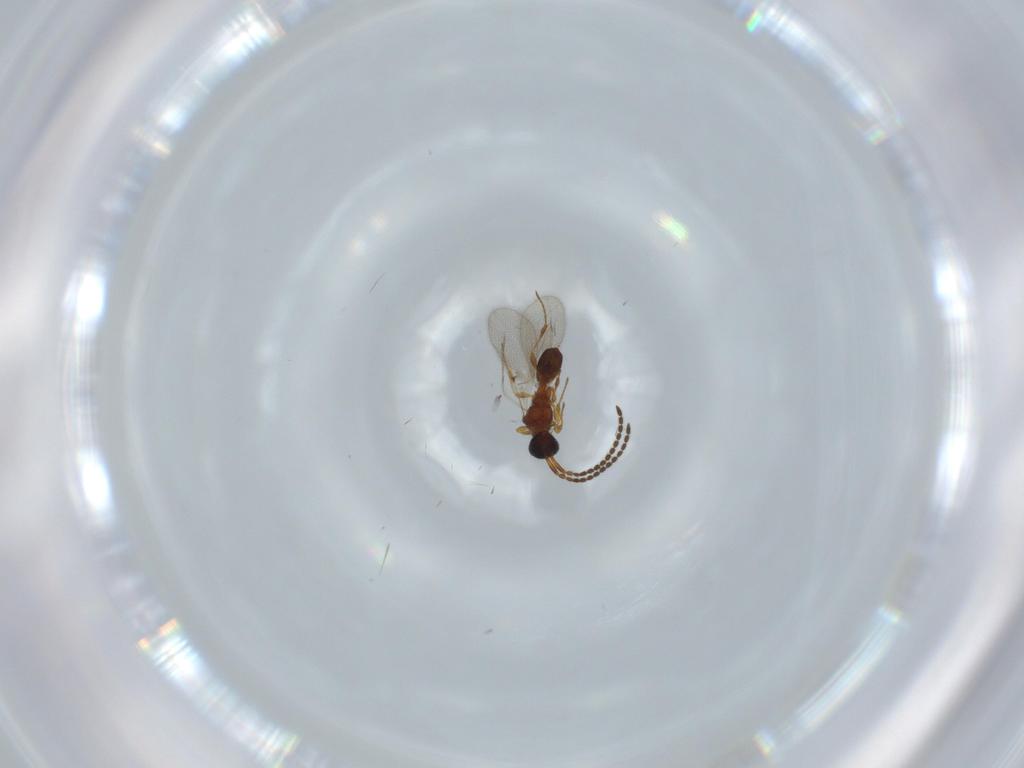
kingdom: Animalia
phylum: Arthropoda
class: Insecta
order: Hymenoptera
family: Diapriidae
